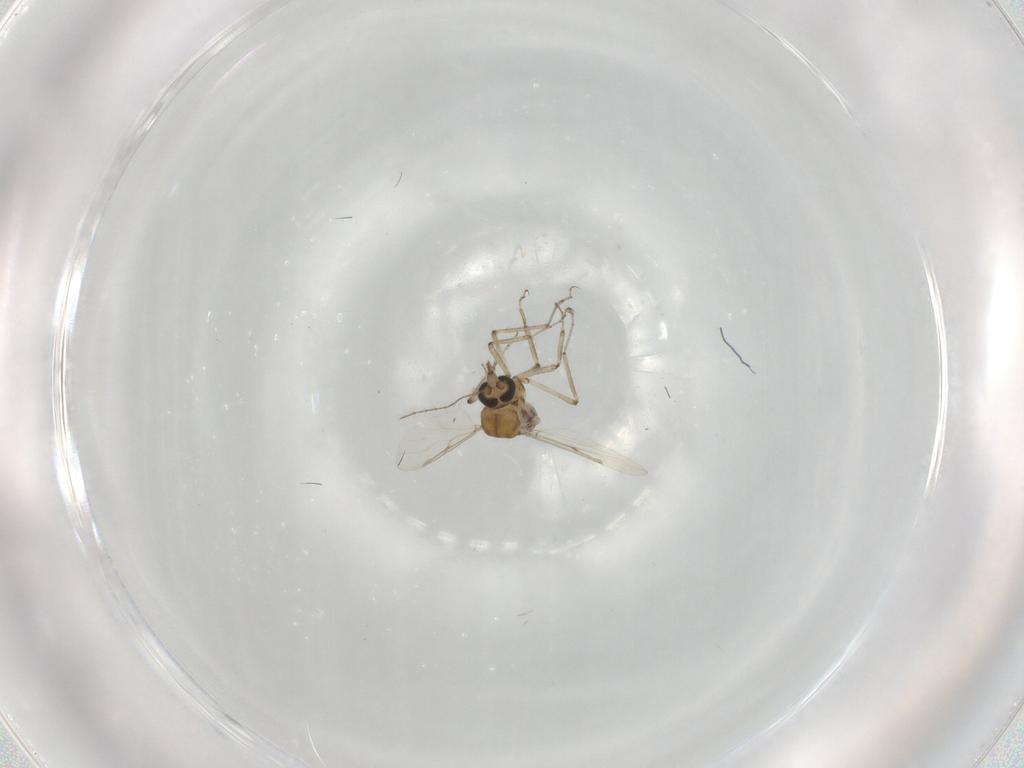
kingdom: Animalia
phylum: Arthropoda
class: Insecta
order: Diptera
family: Ceratopogonidae
